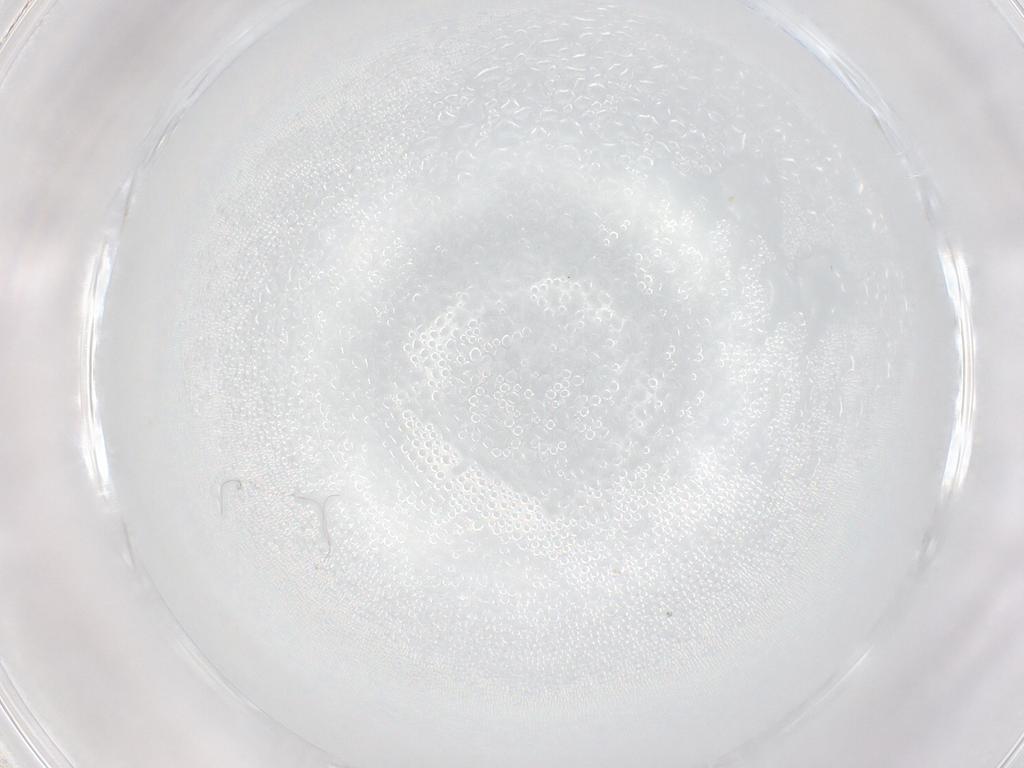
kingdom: Animalia
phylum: Arthropoda
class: Insecta
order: Diptera
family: Sciaridae
